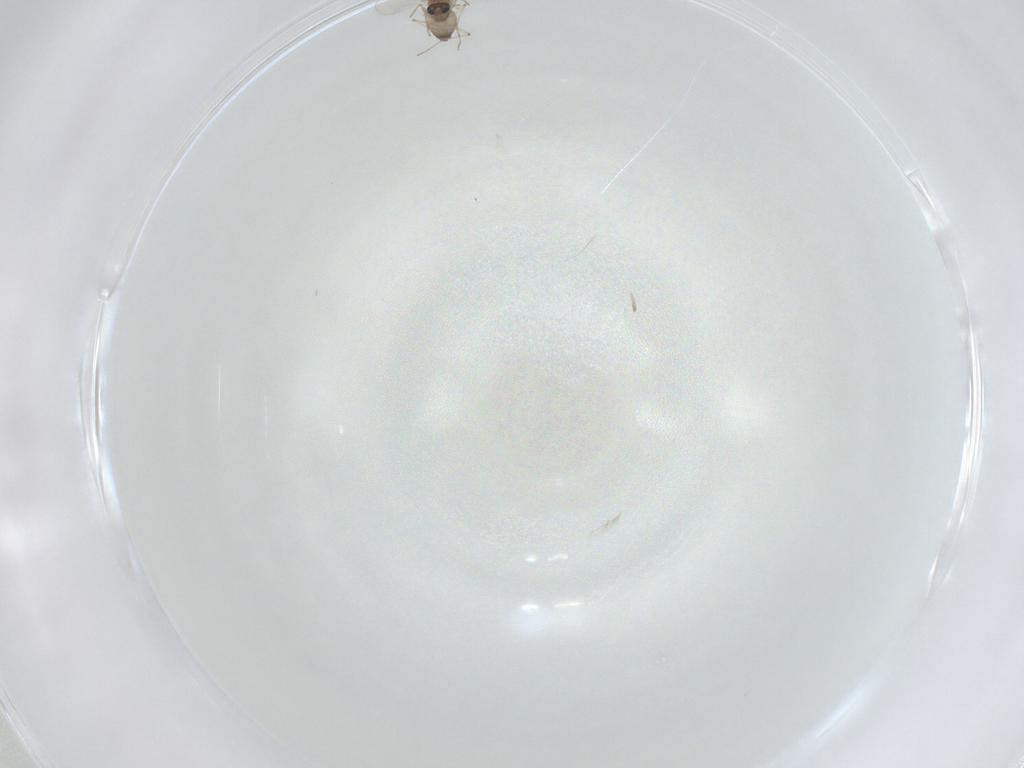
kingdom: Animalia
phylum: Arthropoda
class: Insecta
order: Diptera
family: Chironomidae
